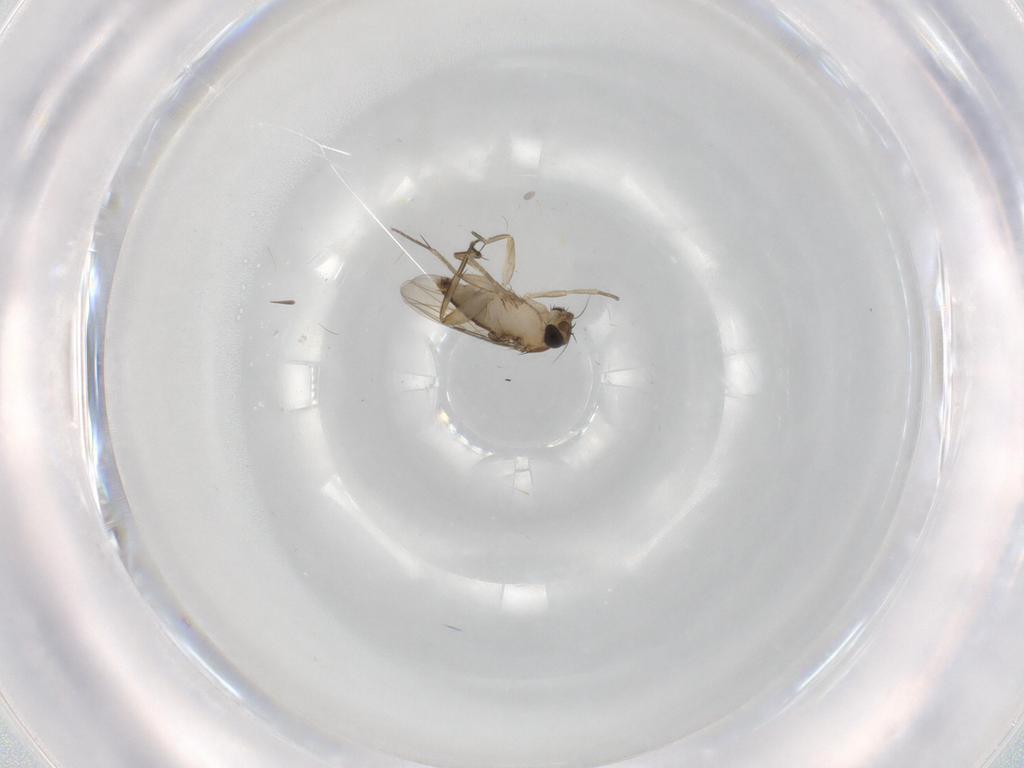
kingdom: Animalia
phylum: Arthropoda
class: Insecta
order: Diptera
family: Phoridae
